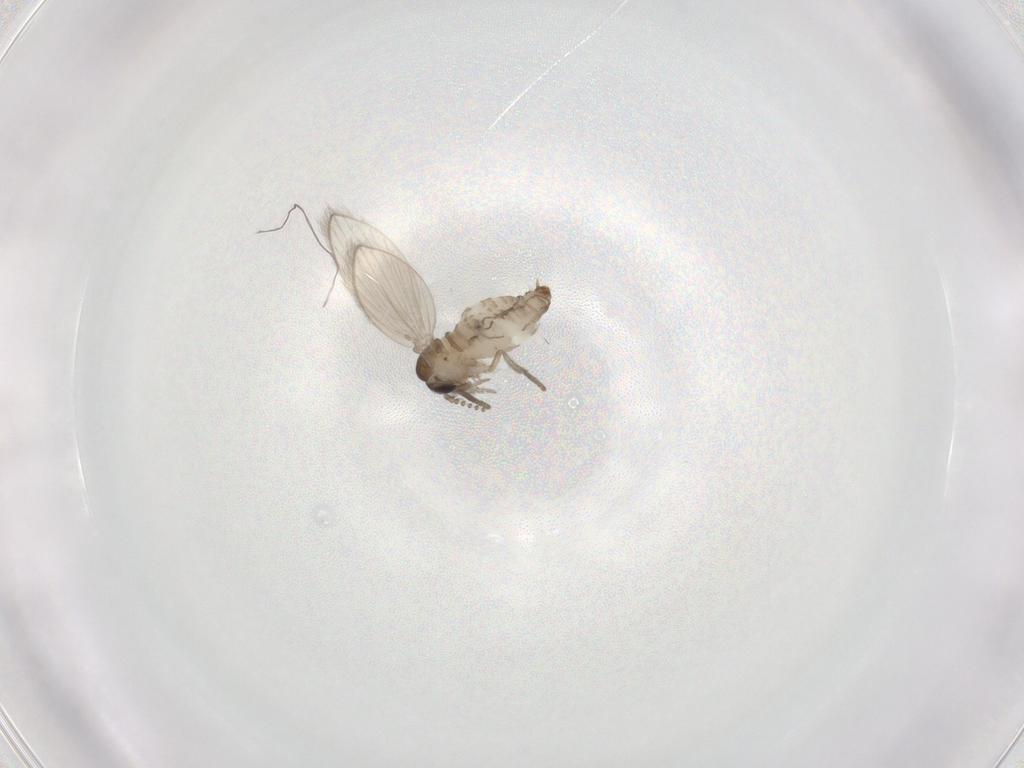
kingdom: Animalia
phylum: Arthropoda
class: Insecta
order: Diptera
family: Psychodidae
